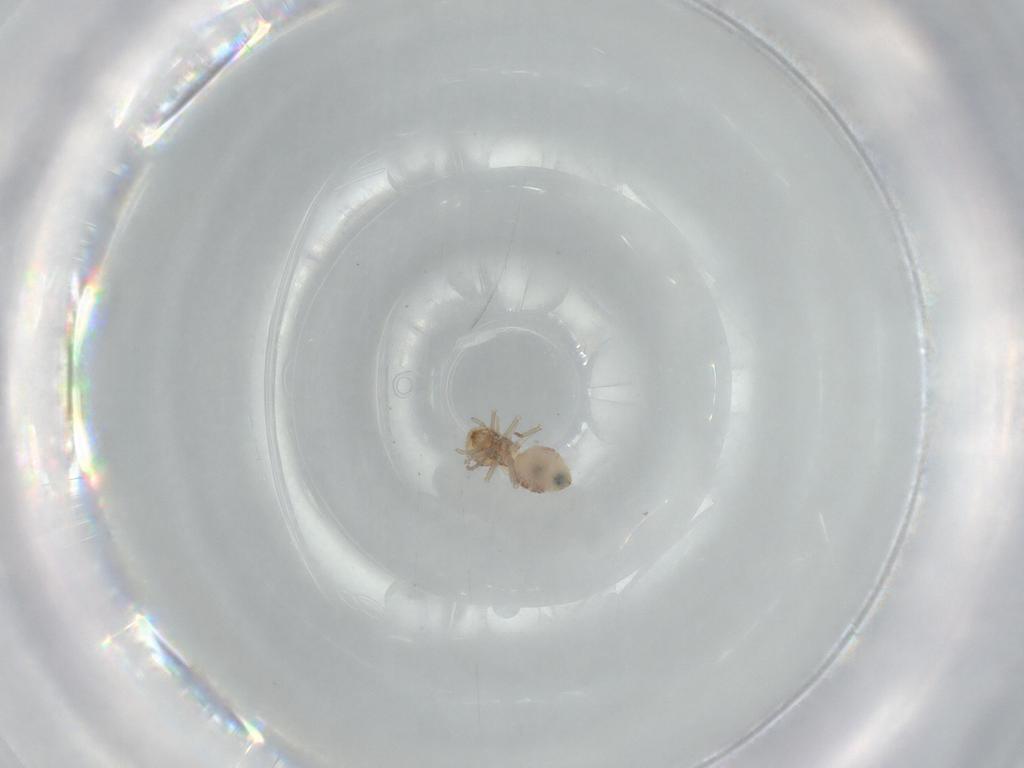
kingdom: Animalia
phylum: Arthropoda
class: Insecta
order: Psocodea
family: Amphipsocidae
